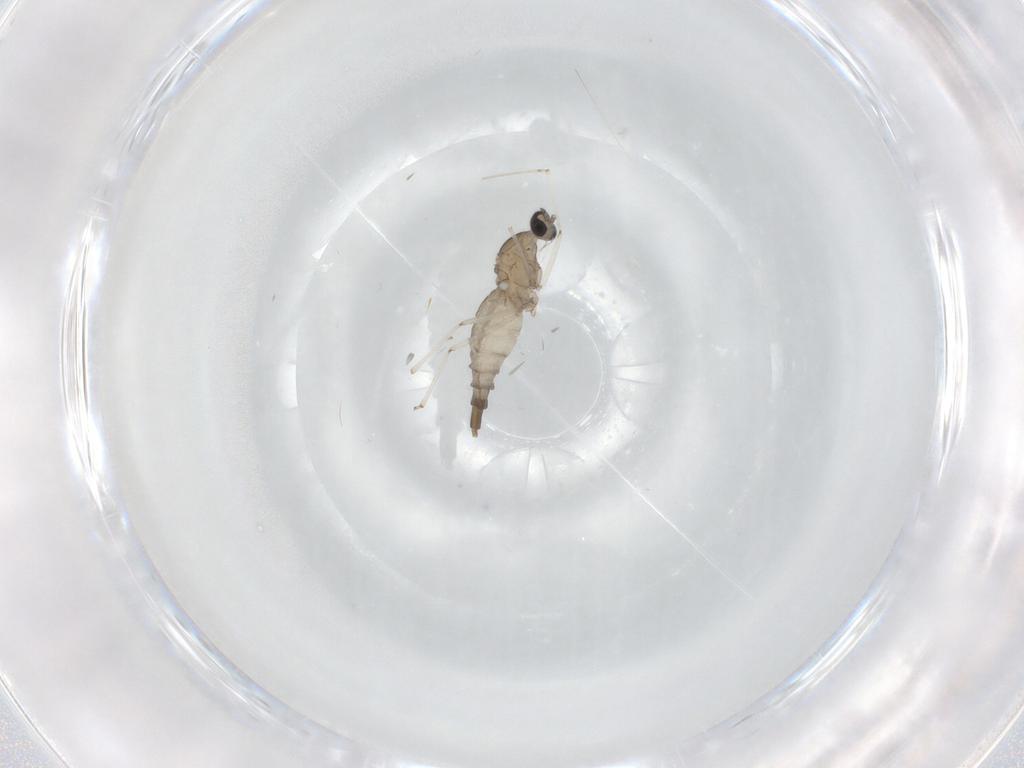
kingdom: Animalia
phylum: Arthropoda
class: Insecta
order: Diptera
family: Cecidomyiidae
